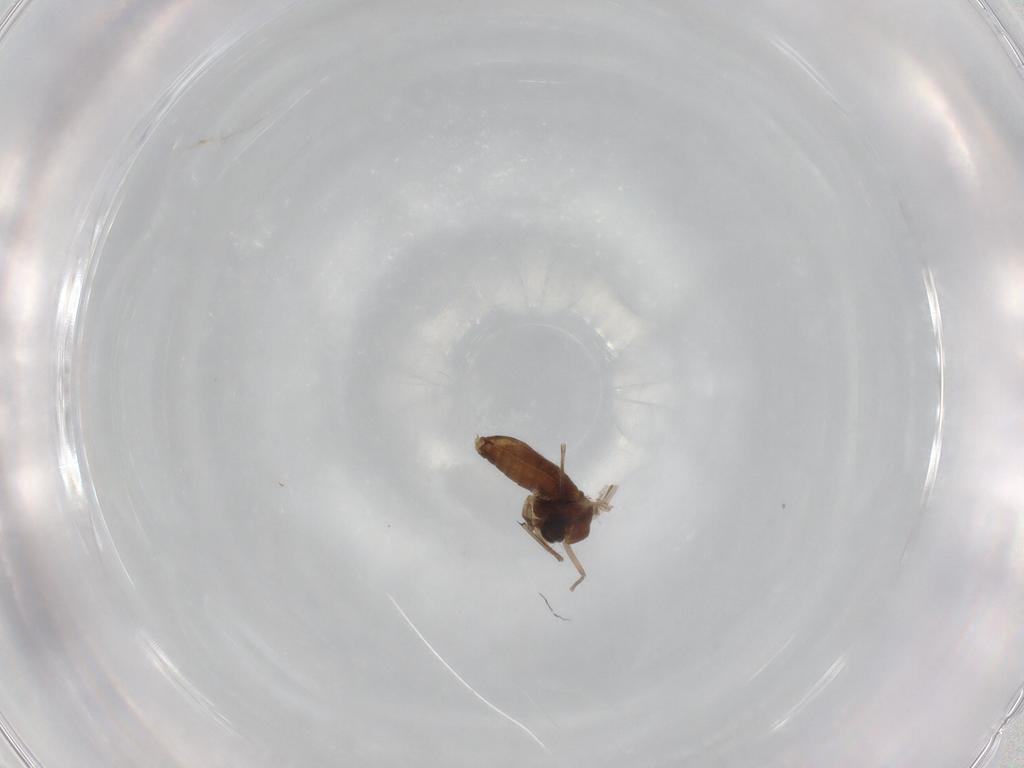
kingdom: Animalia
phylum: Arthropoda
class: Insecta
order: Diptera
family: Chironomidae
